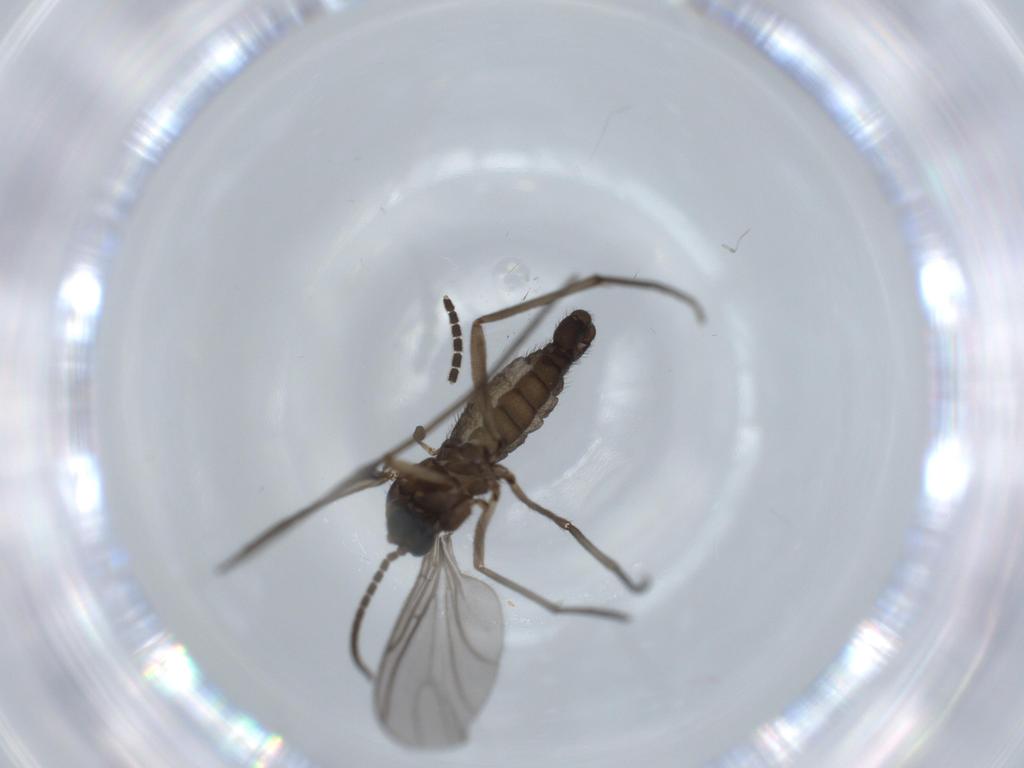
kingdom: Animalia
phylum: Arthropoda
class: Insecta
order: Diptera
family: Sciaridae
